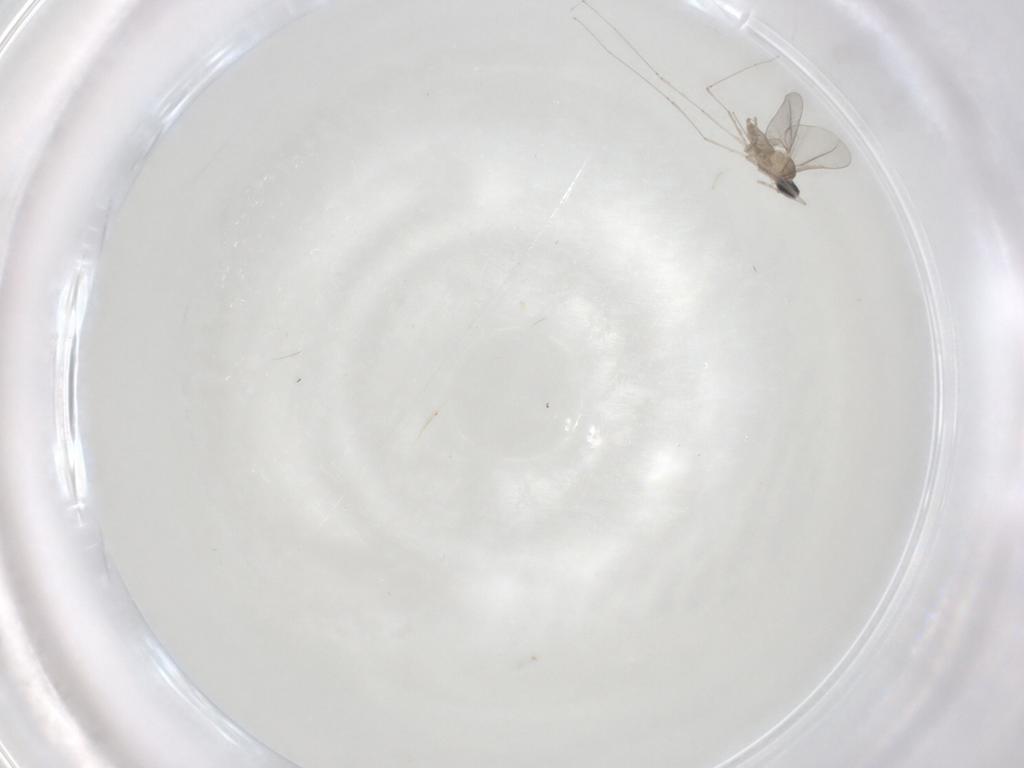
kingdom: Animalia
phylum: Arthropoda
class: Insecta
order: Diptera
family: Cecidomyiidae
